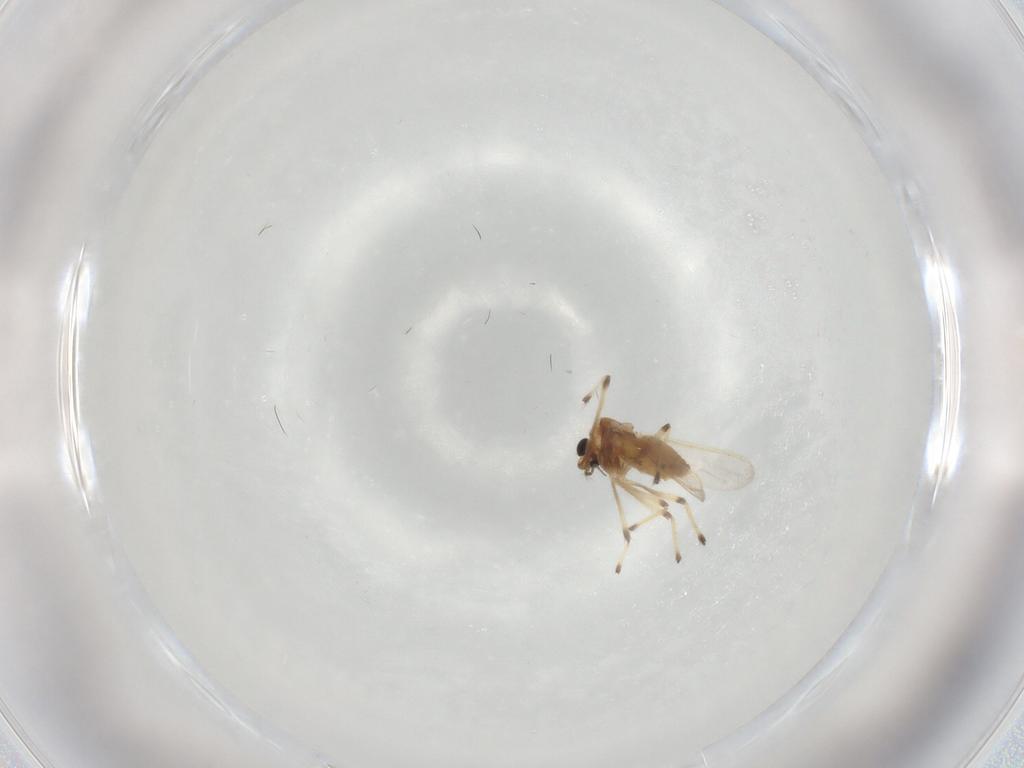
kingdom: Animalia
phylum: Arthropoda
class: Insecta
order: Diptera
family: Chironomidae
